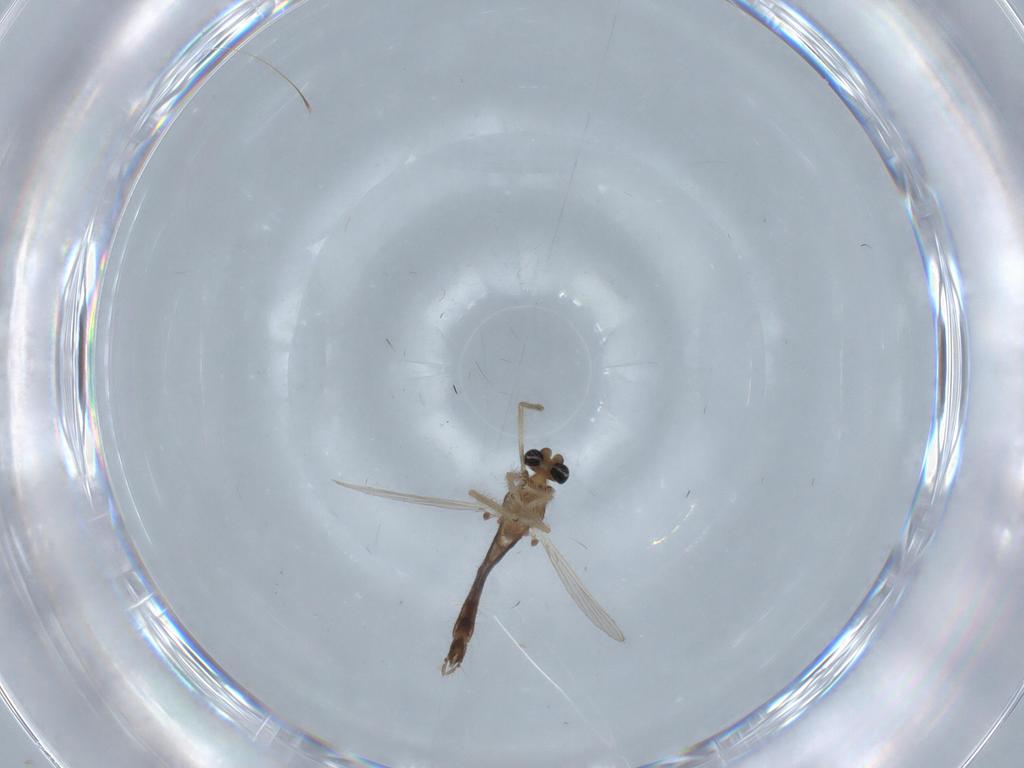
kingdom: Animalia
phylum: Arthropoda
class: Insecta
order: Diptera
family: Chironomidae
